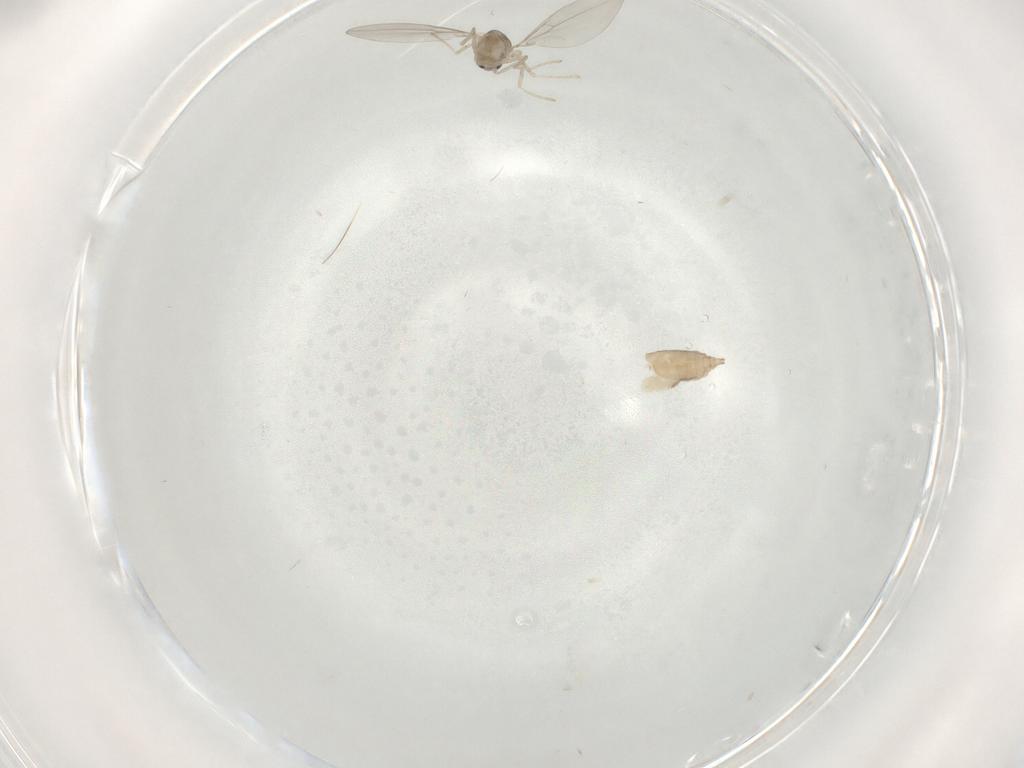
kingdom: Animalia
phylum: Arthropoda
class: Insecta
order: Diptera
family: Cecidomyiidae
